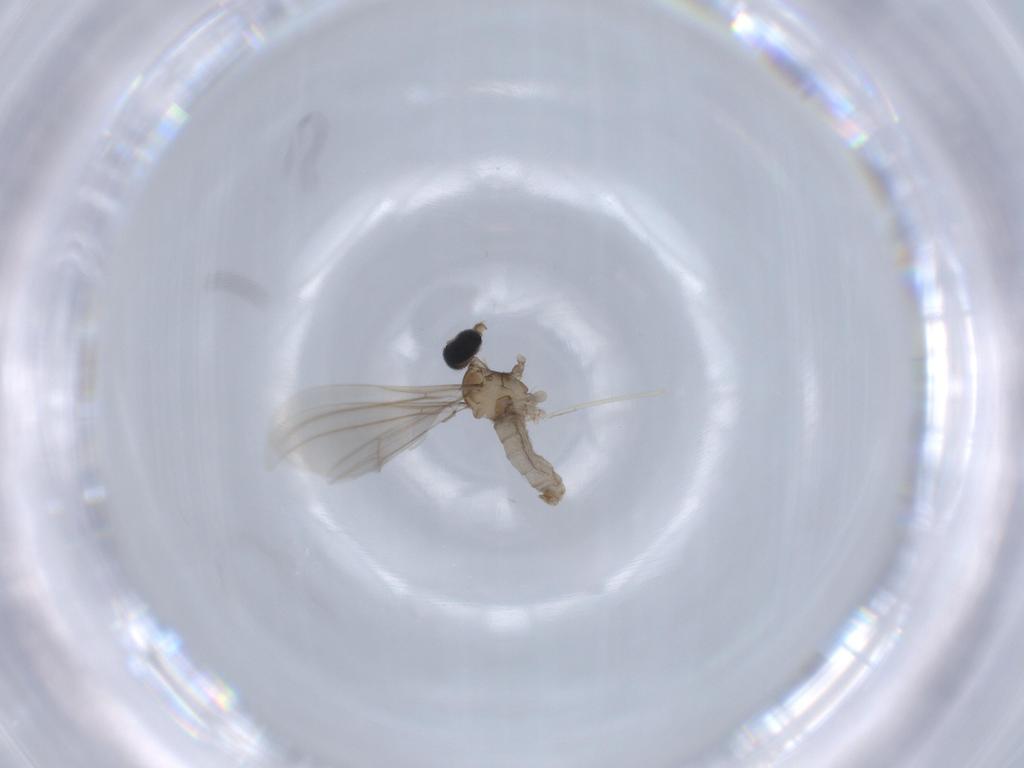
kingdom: Animalia
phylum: Arthropoda
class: Insecta
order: Diptera
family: Cecidomyiidae
